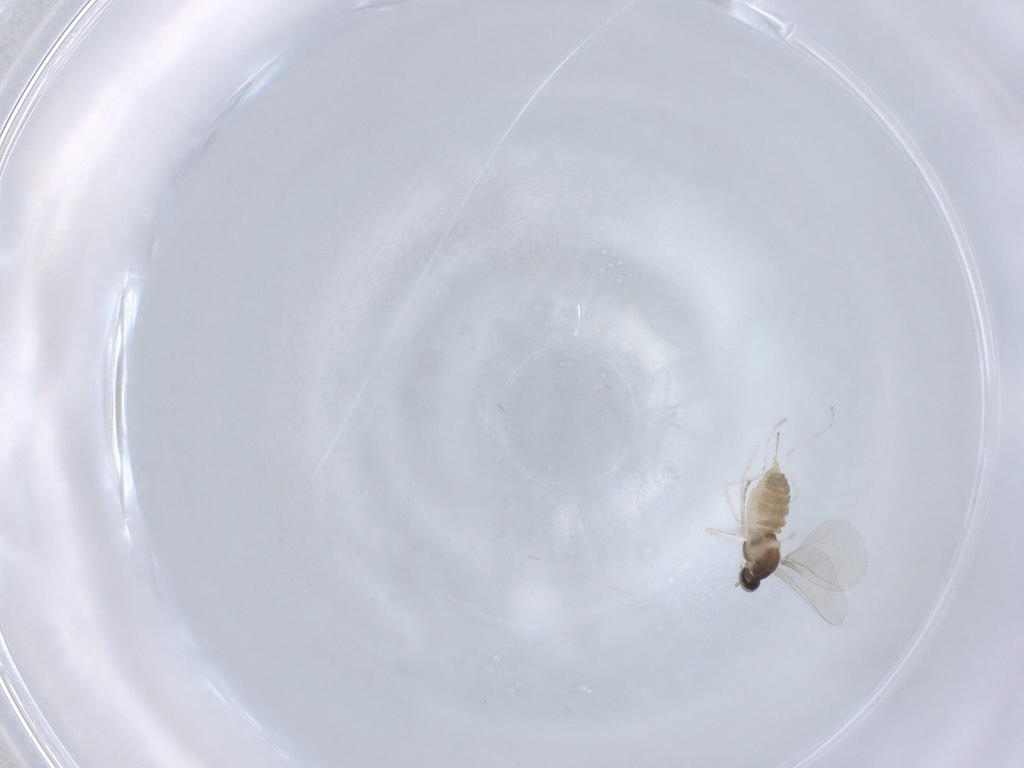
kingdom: Animalia
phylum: Arthropoda
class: Insecta
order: Diptera
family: Cecidomyiidae
